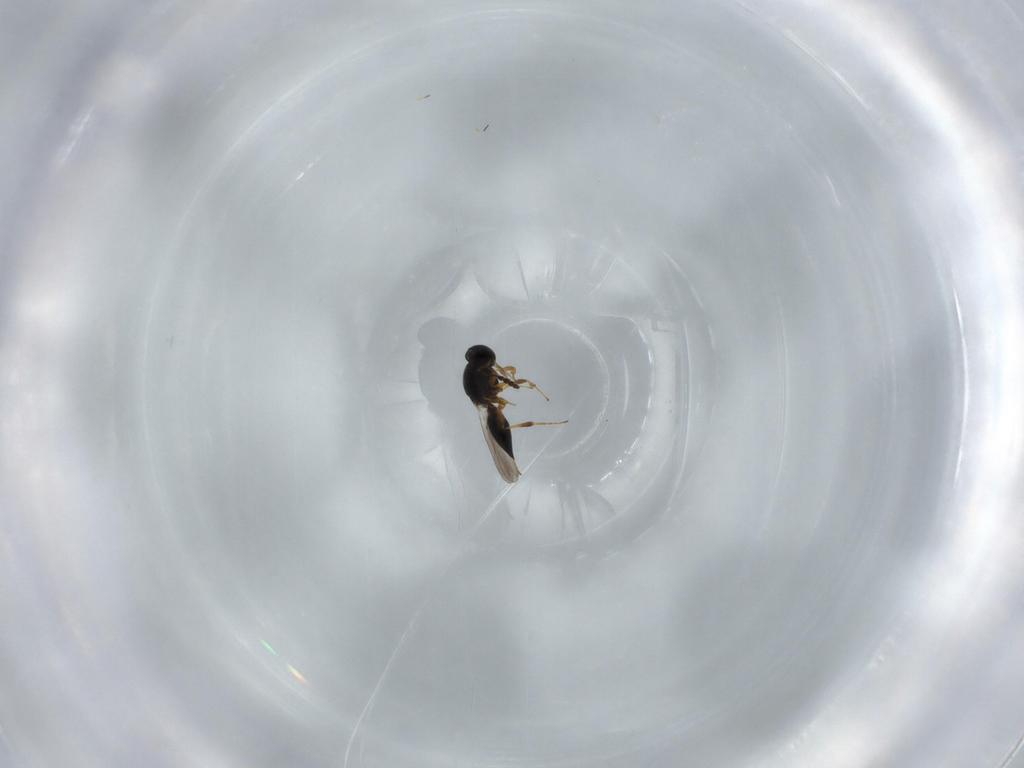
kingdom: Animalia
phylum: Arthropoda
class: Insecta
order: Hymenoptera
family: Platygastridae
